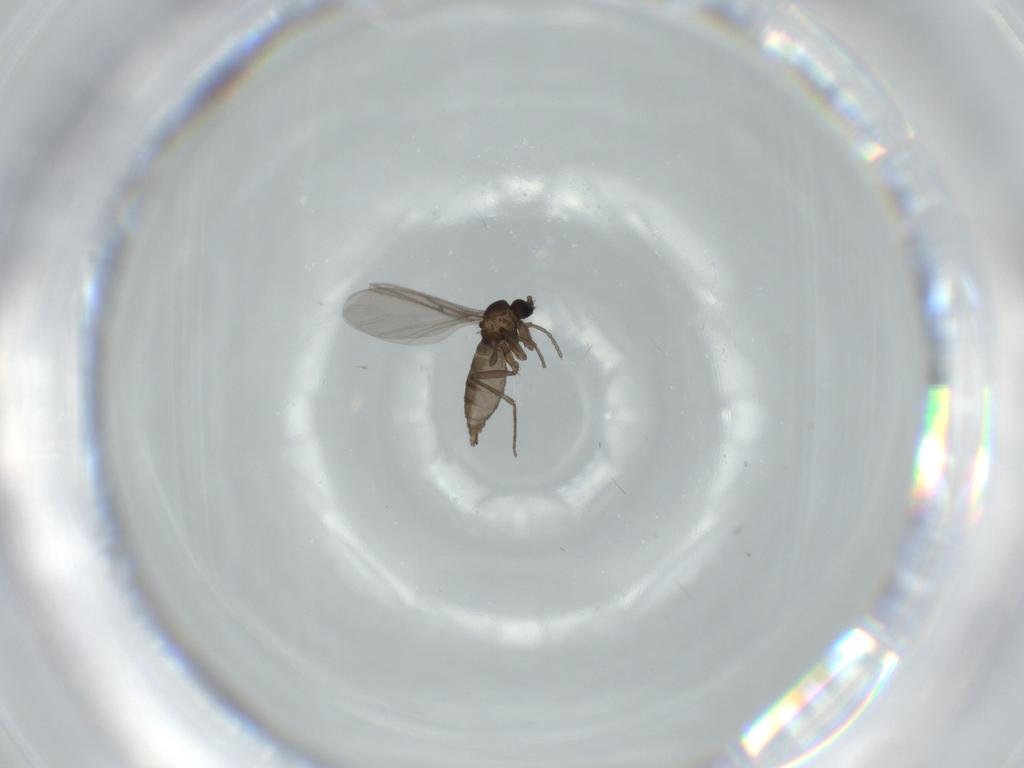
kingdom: Animalia
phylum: Arthropoda
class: Insecta
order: Diptera
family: Sciaridae
